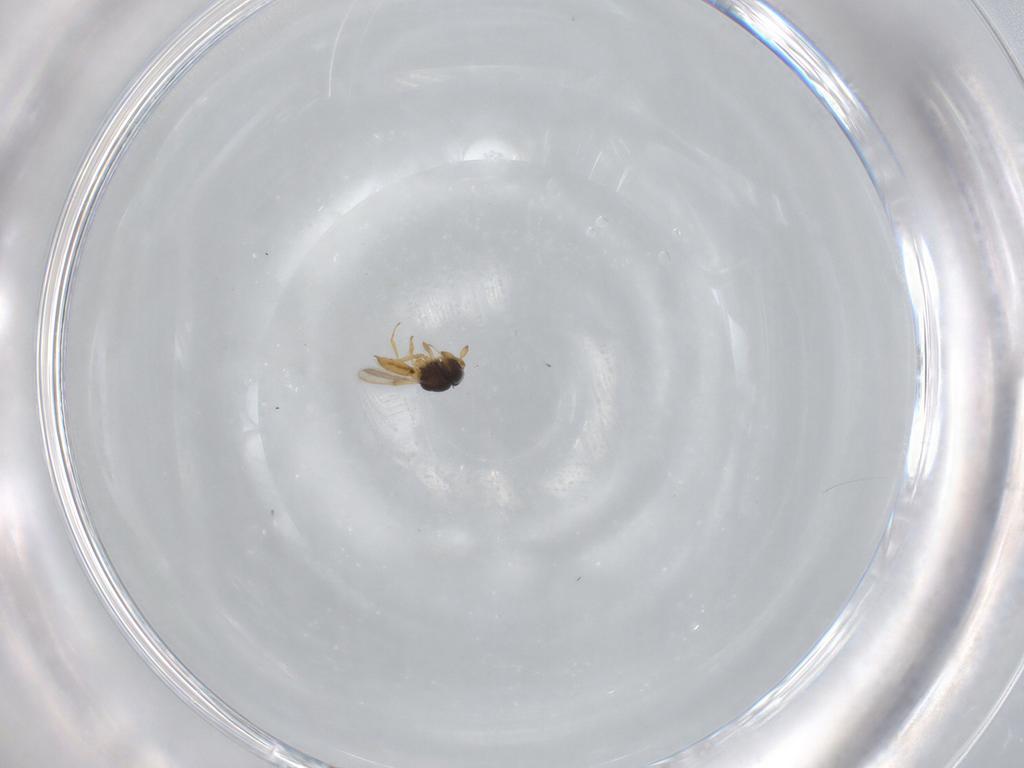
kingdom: Animalia
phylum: Arthropoda
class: Insecta
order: Hymenoptera
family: Scelionidae
